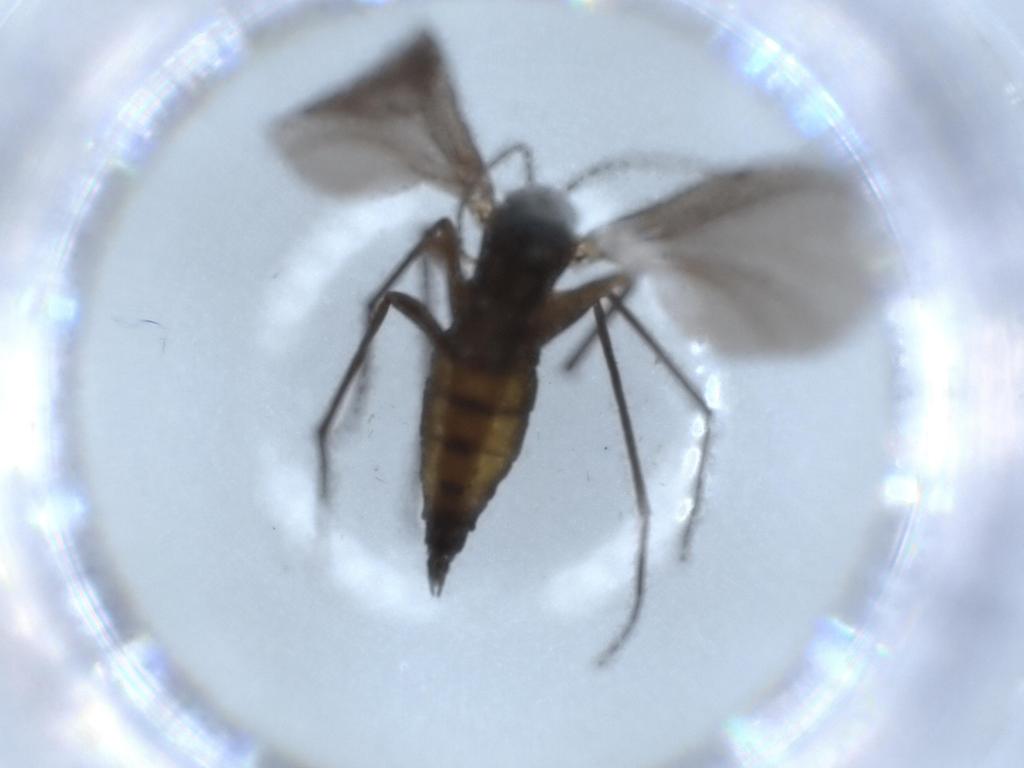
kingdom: Animalia
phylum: Arthropoda
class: Insecta
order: Diptera
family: Sciaridae
